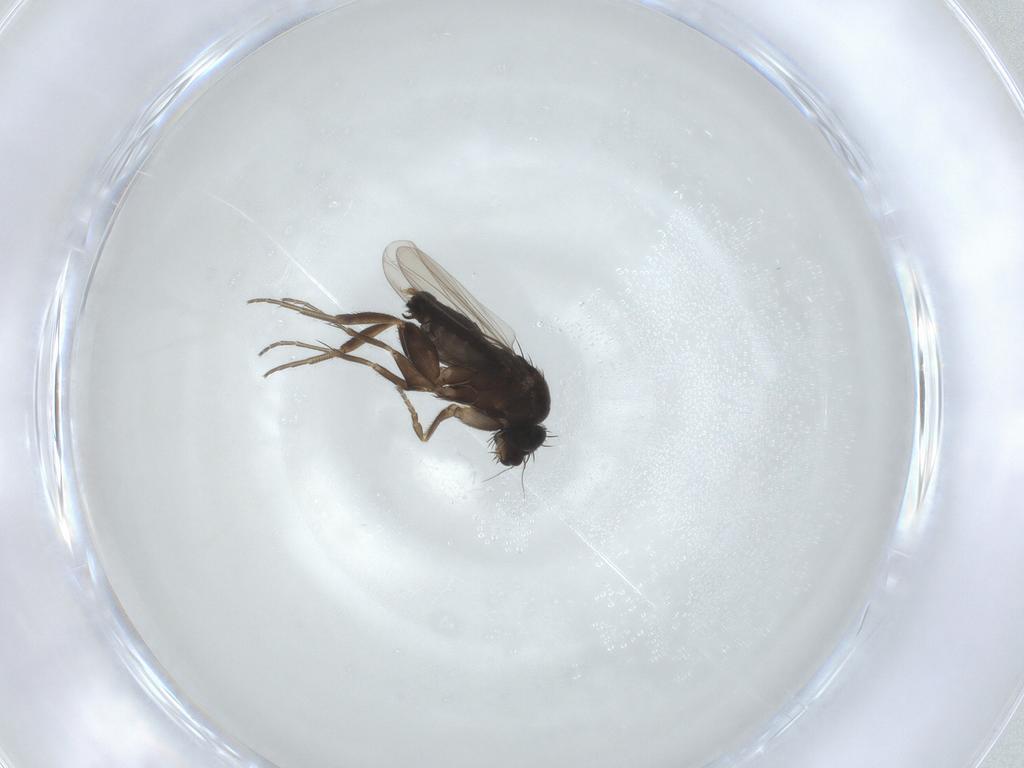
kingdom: Animalia
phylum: Arthropoda
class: Insecta
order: Diptera
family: Phoridae
